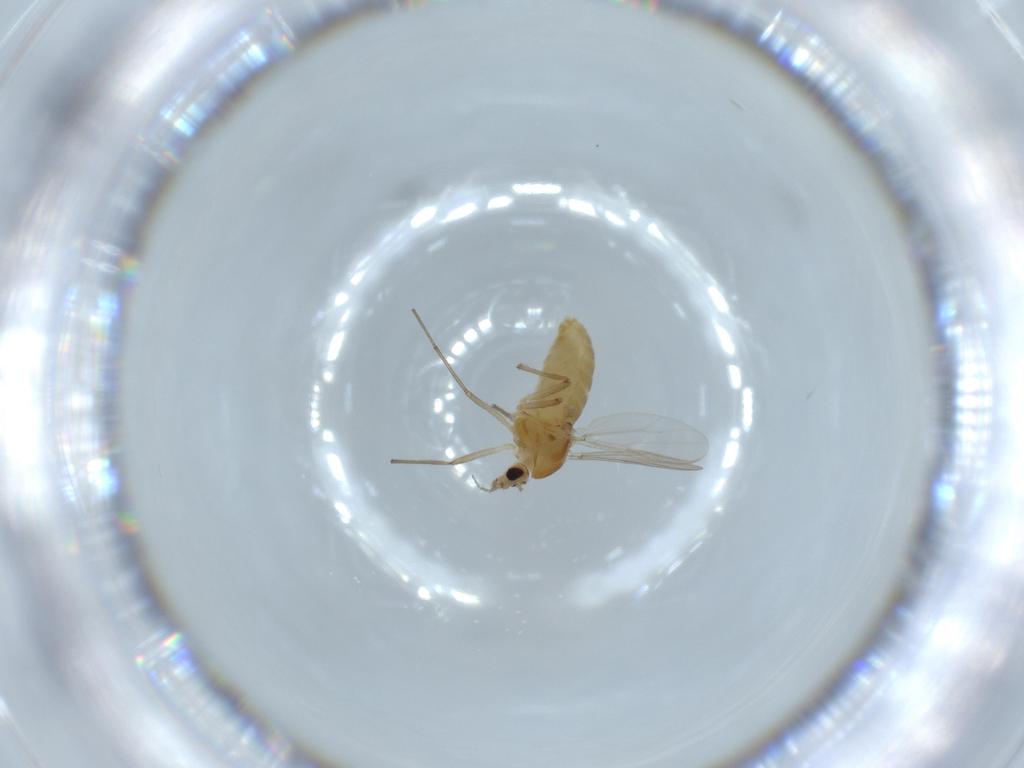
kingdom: Animalia
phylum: Arthropoda
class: Insecta
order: Diptera
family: Chironomidae
